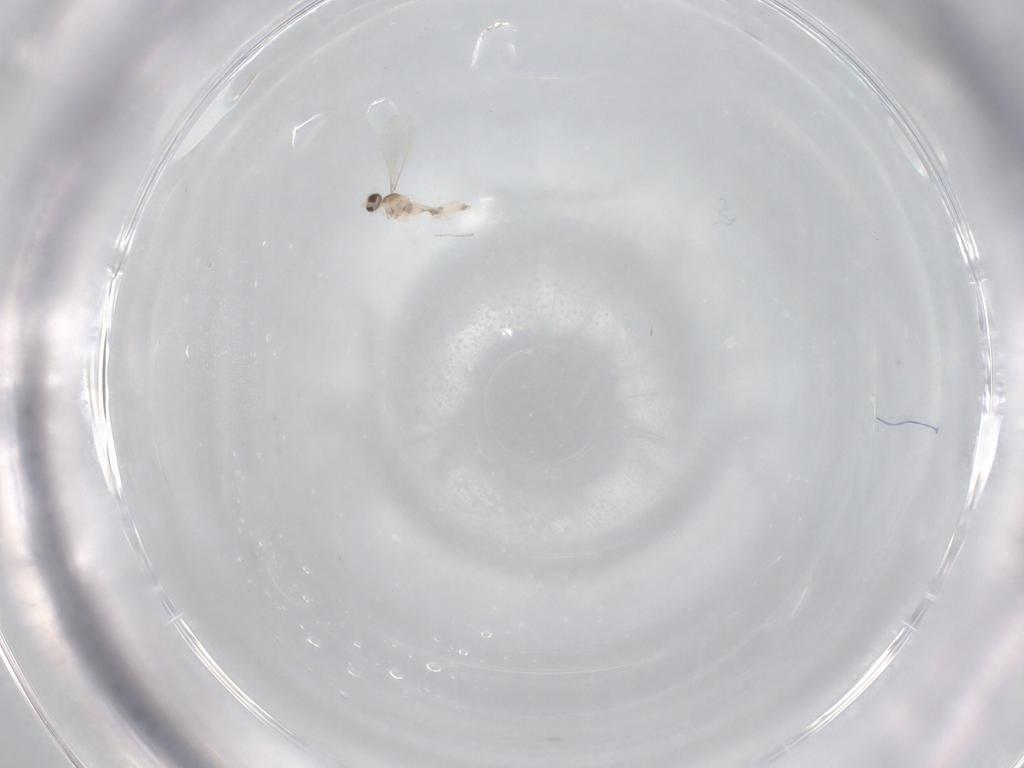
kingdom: Animalia
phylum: Arthropoda
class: Insecta
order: Diptera
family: Cecidomyiidae
